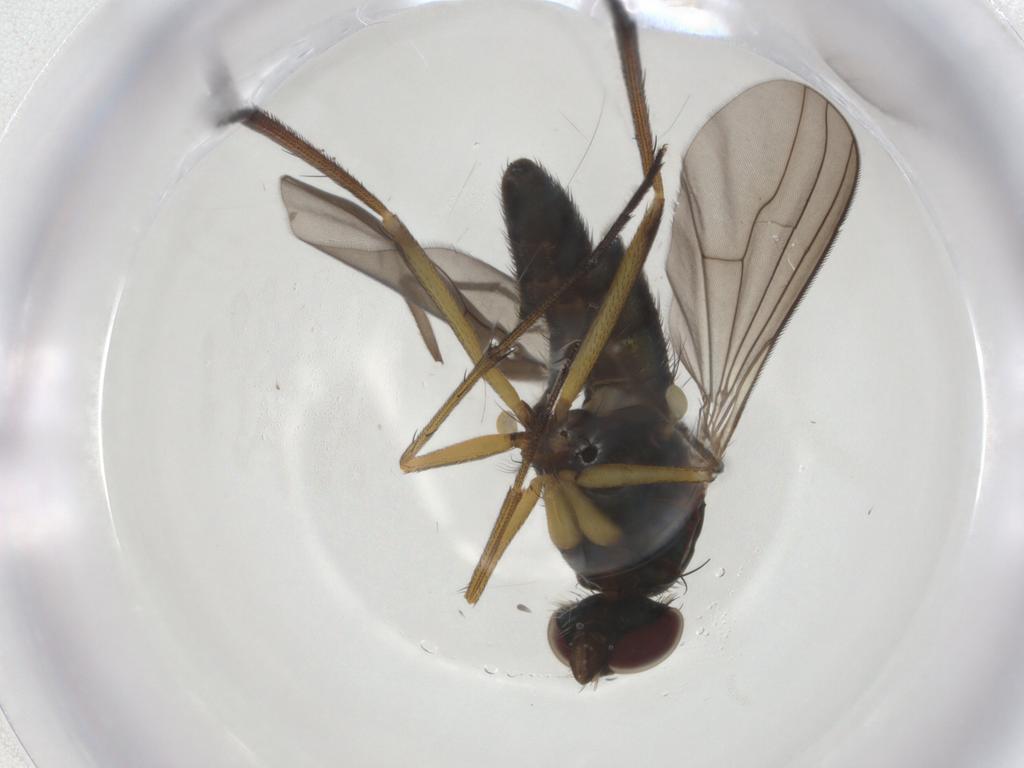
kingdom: Animalia
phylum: Arthropoda
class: Insecta
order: Diptera
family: Dolichopodidae
